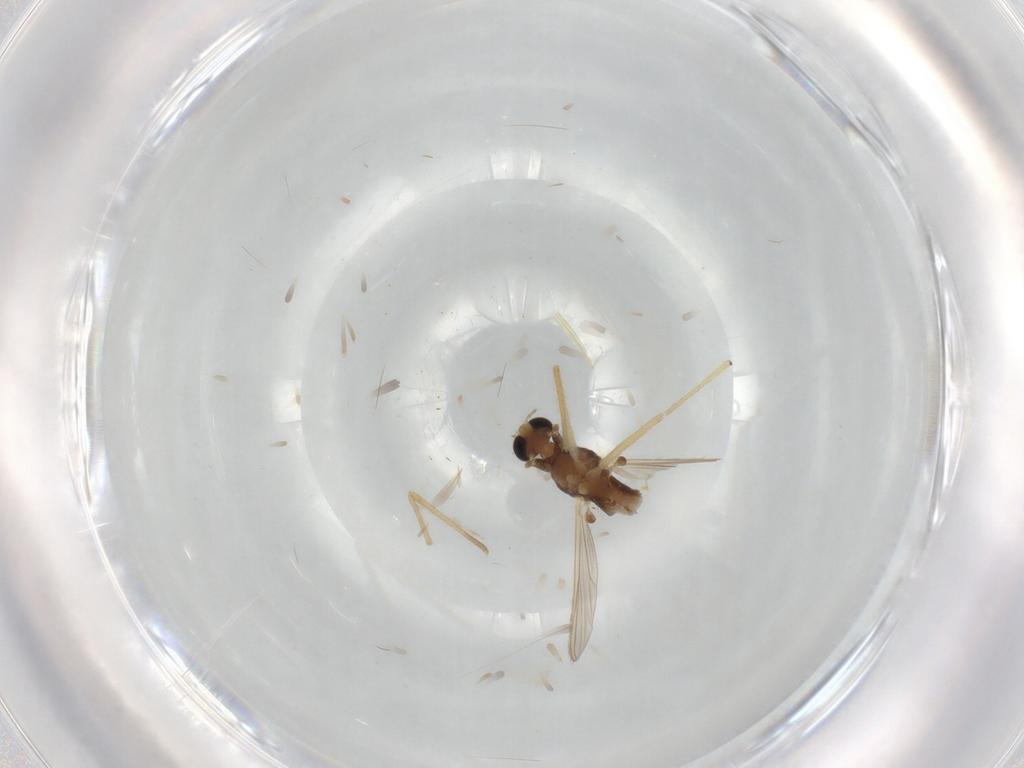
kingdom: Animalia
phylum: Arthropoda
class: Insecta
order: Diptera
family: Chironomidae
